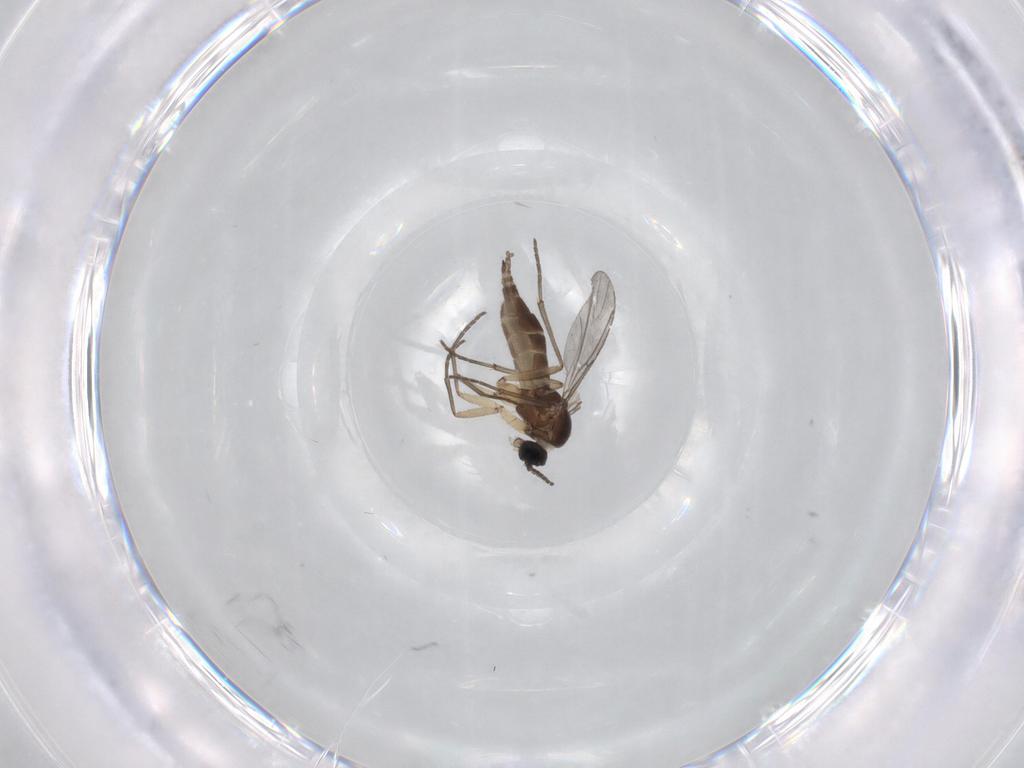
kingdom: Animalia
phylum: Arthropoda
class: Insecta
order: Diptera
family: Sciaridae
